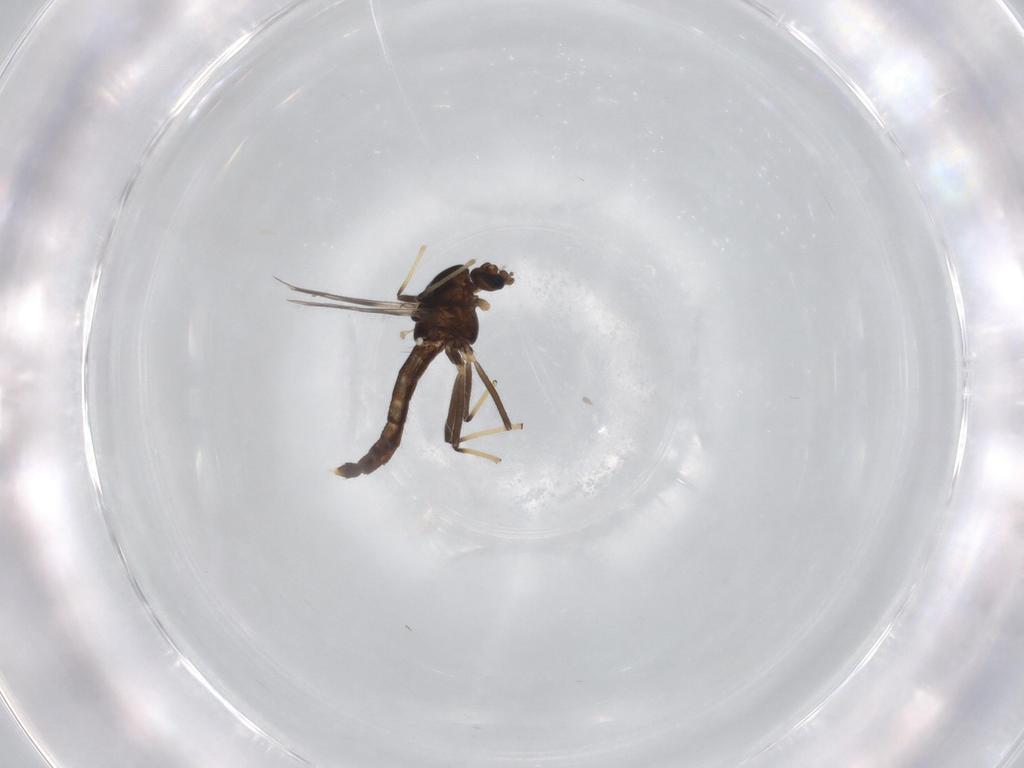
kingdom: Animalia
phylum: Arthropoda
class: Insecta
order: Diptera
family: Chironomidae
